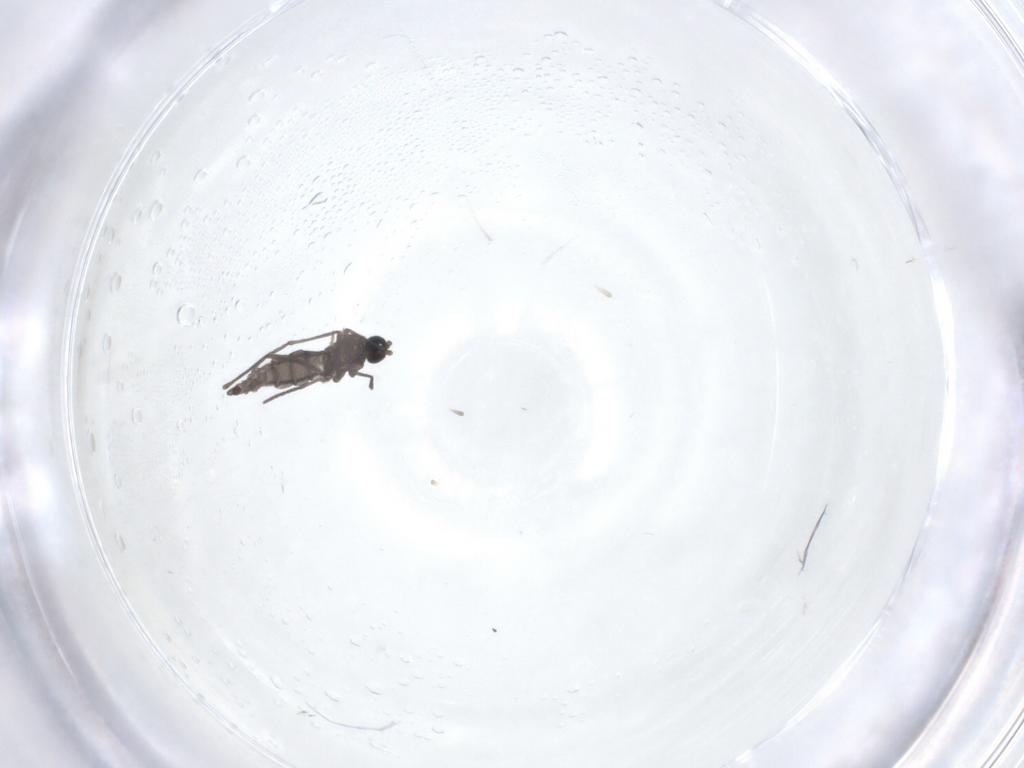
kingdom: Animalia
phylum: Arthropoda
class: Insecta
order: Diptera
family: Sciaridae
